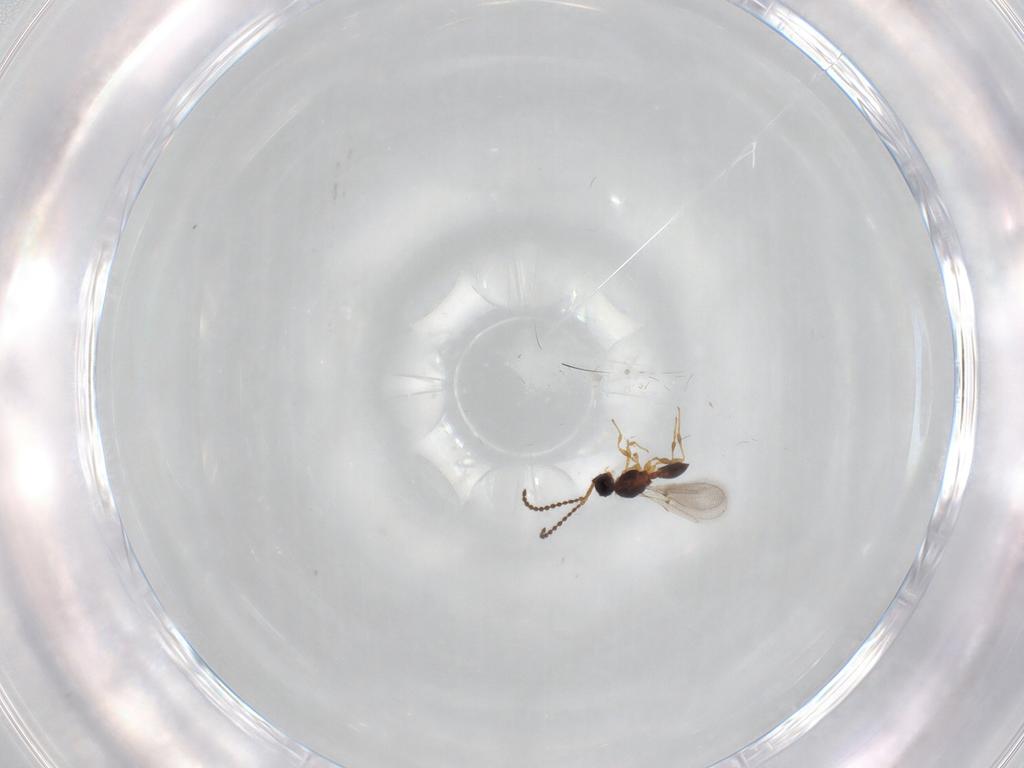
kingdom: Animalia
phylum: Arthropoda
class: Insecta
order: Hymenoptera
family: Diapriidae
